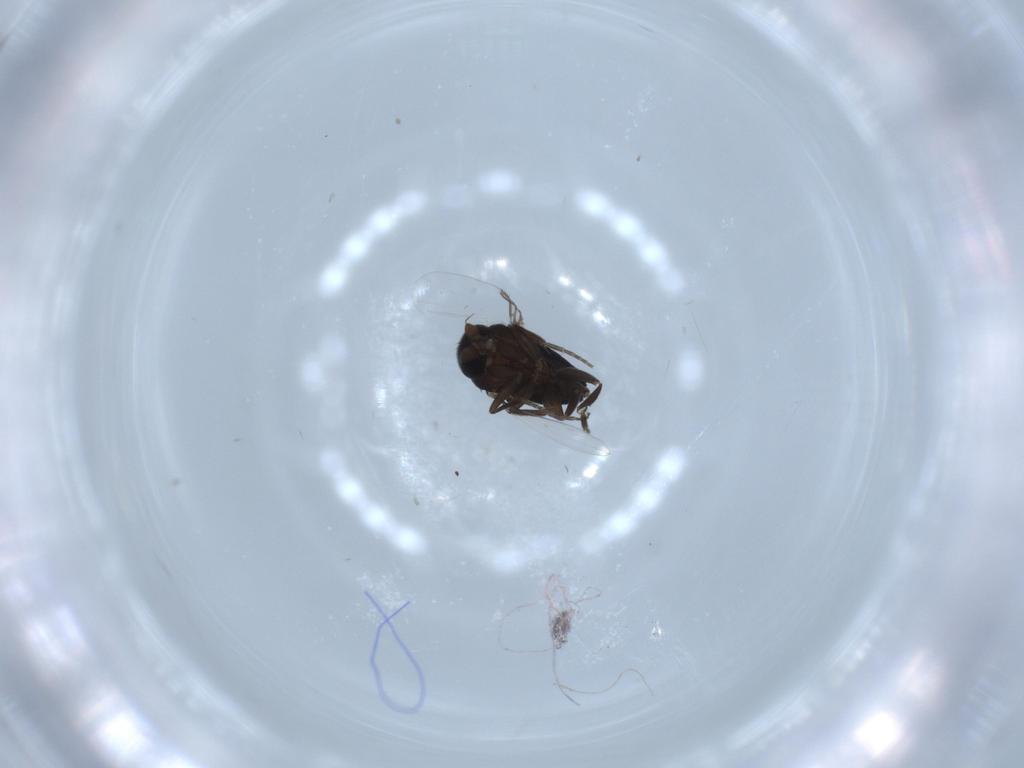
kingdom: Animalia
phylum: Arthropoda
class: Insecta
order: Diptera
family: Phoridae
